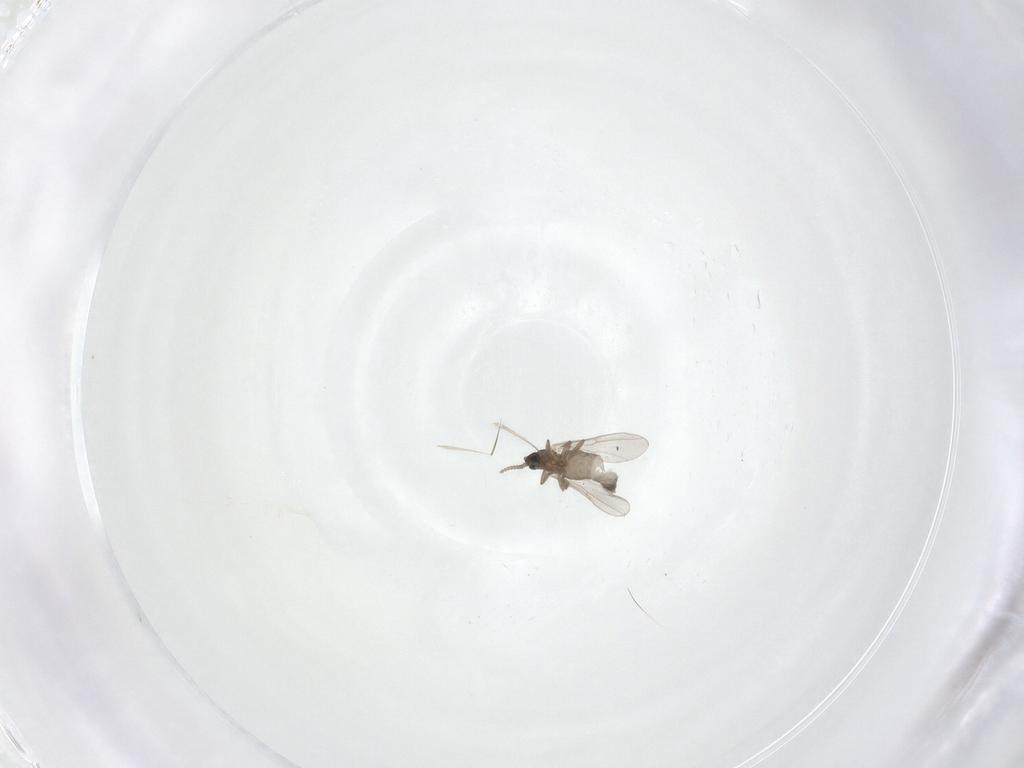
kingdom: Animalia
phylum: Arthropoda
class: Insecta
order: Diptera
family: Cecidomyiidae
